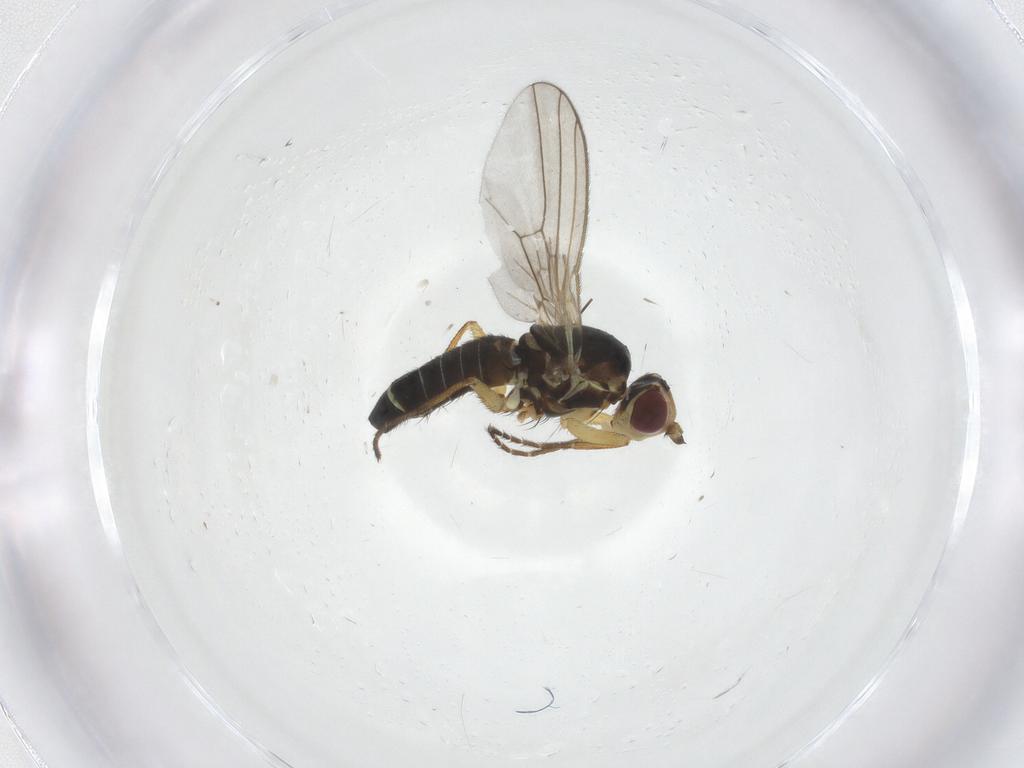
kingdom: Animalia
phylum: Arthropoda
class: Insecta
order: Diptera
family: Agromyzidae
